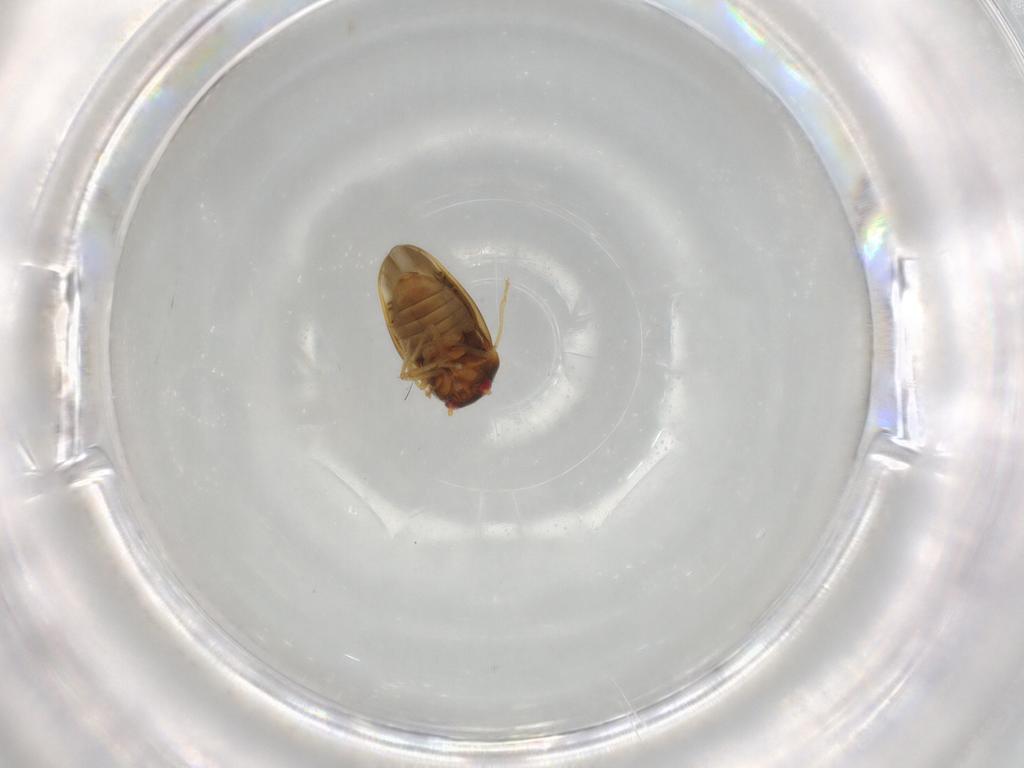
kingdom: Animalia
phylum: Arthropoda
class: Insecta
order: Hemiptera
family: Schizopteridae
